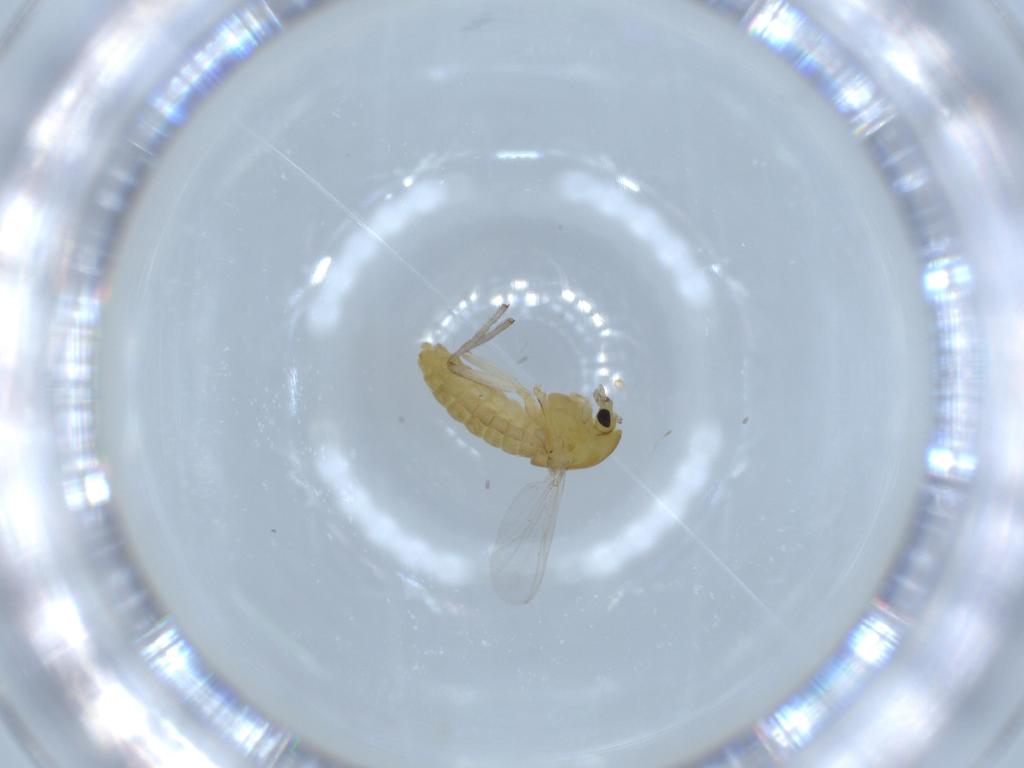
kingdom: Animalia
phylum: Arthropoda
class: Insecta
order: Diptera
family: Chironomidae
